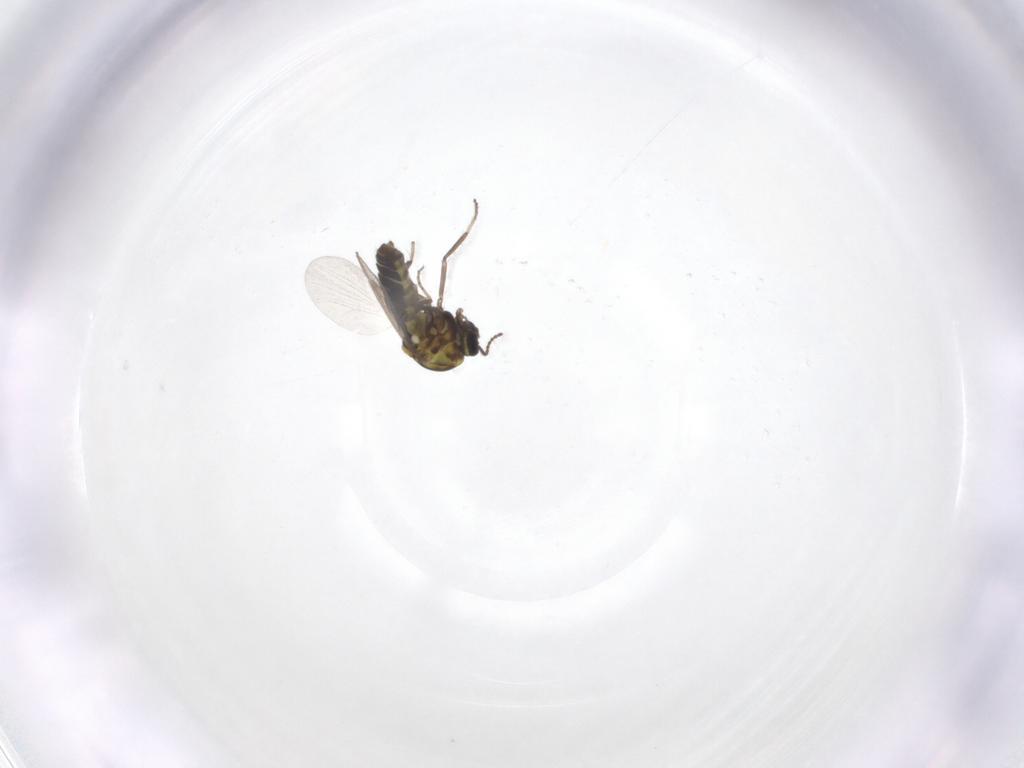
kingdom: Animalia
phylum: Arthropoda
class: Insecta
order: Diptera
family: Ceratopogonidae
